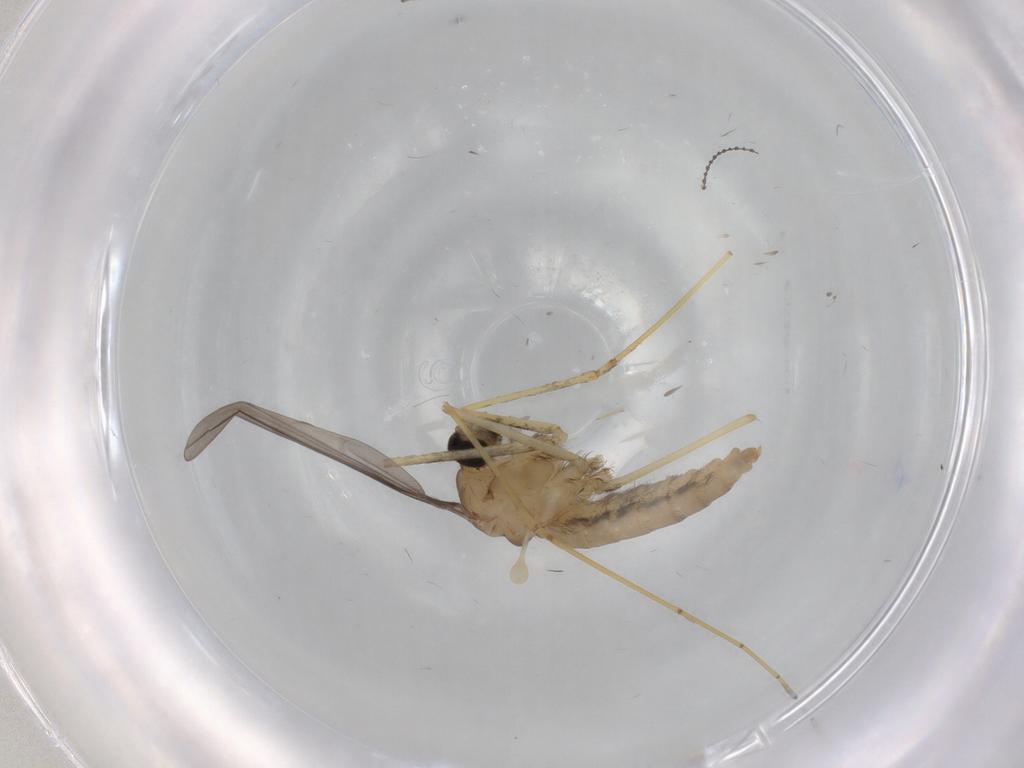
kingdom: Animalia
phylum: Arthropoda
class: Insecta
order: Diptera
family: Cecidomyiidae
